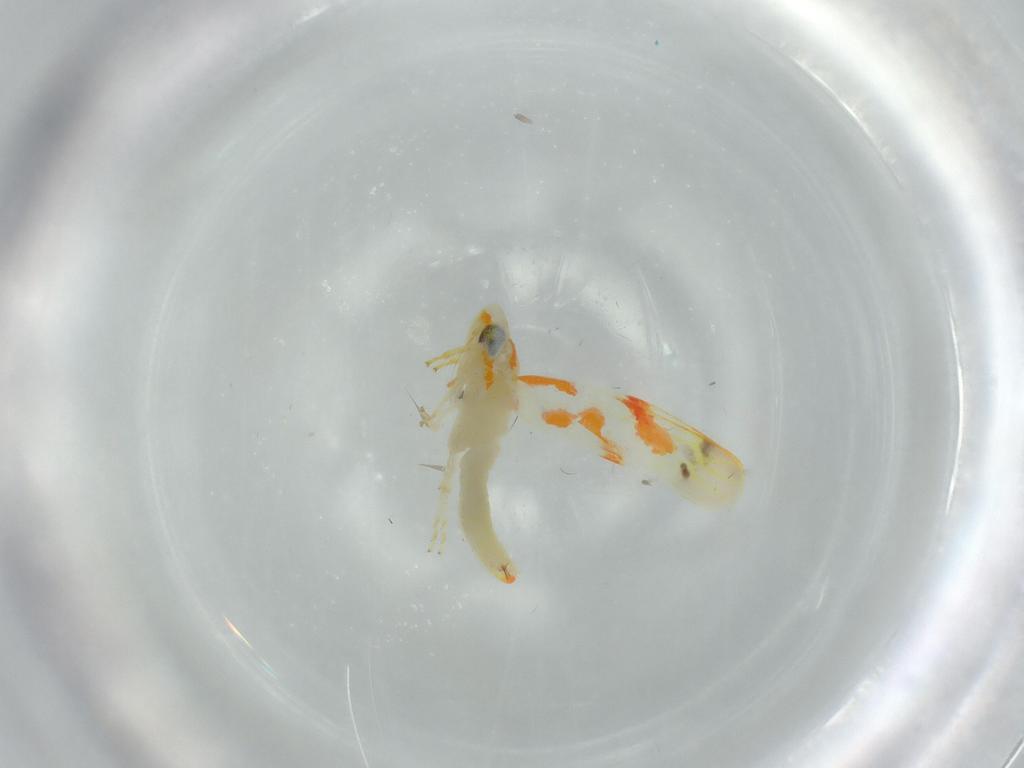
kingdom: Animalia
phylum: Arthropoda
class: Insecta
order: Hemiptera
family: Cicadellidae
